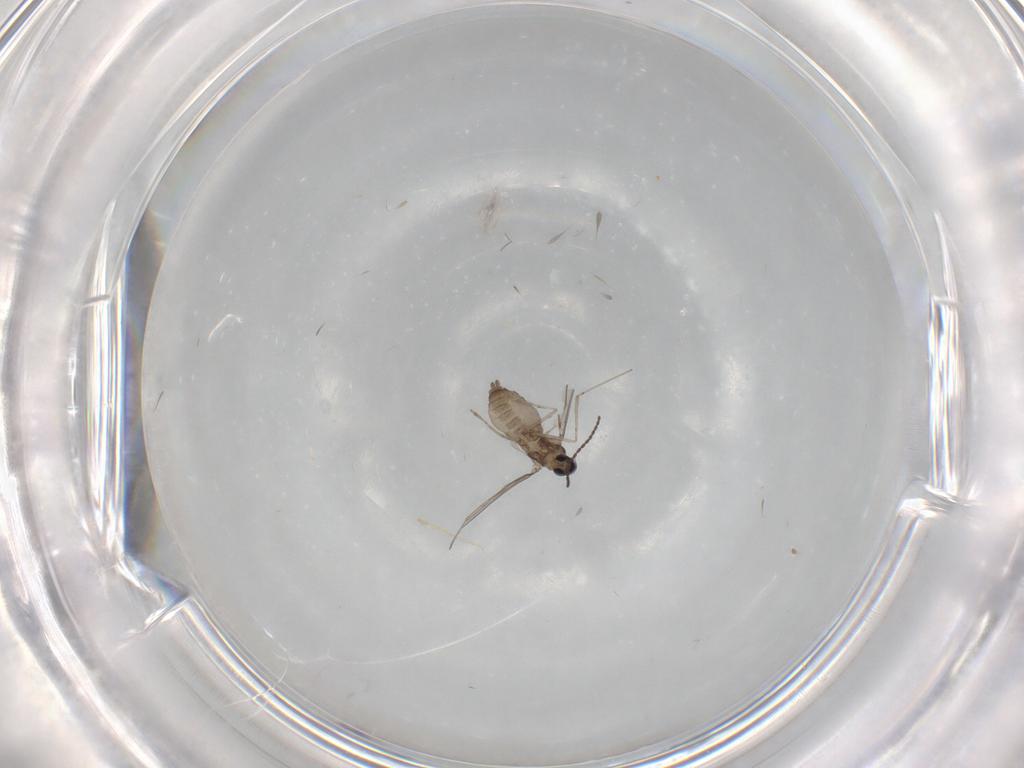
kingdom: Animalia
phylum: Arthropoda
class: Insecta
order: Diptera
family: Cecidomyiidae
